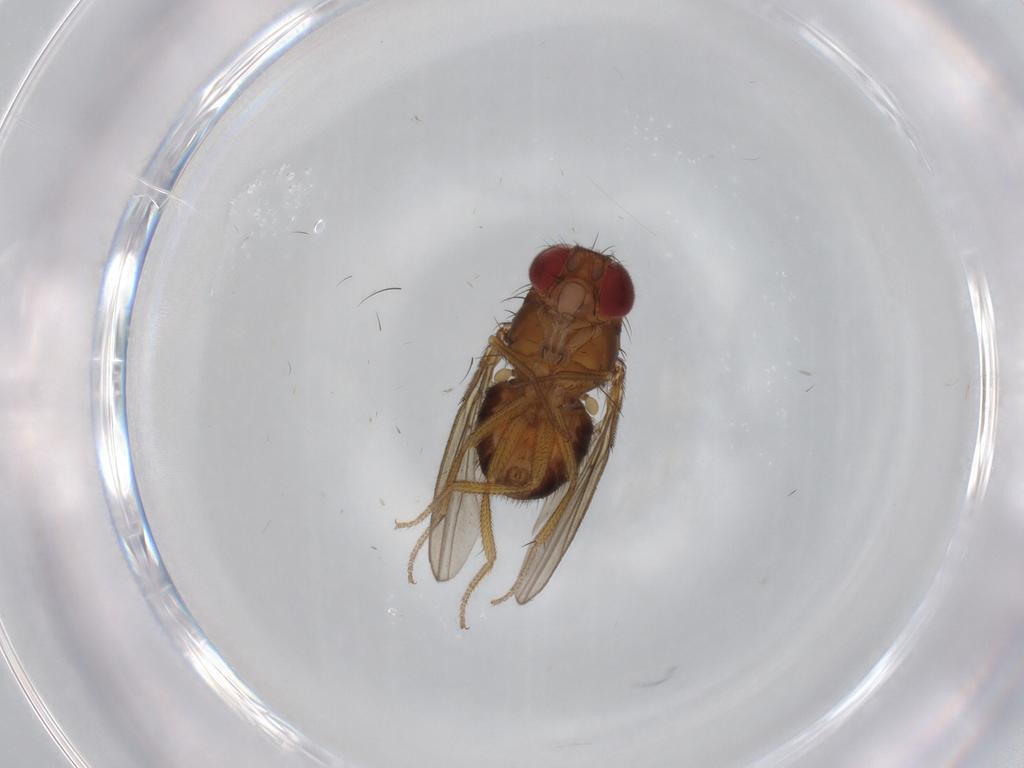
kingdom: Animalia
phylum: Arthropoda
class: Insecta
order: Diptera
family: Drosophilidae
